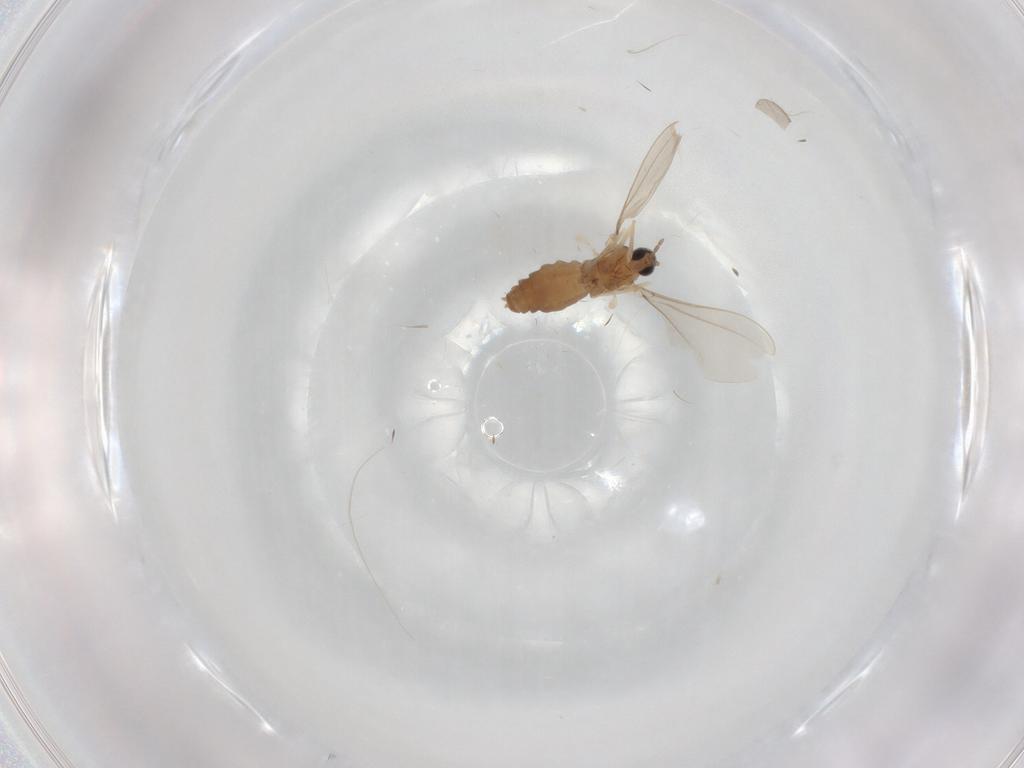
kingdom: Animalia
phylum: Arthropoda
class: Insecta
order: Diptera
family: Cecidomyiidae
